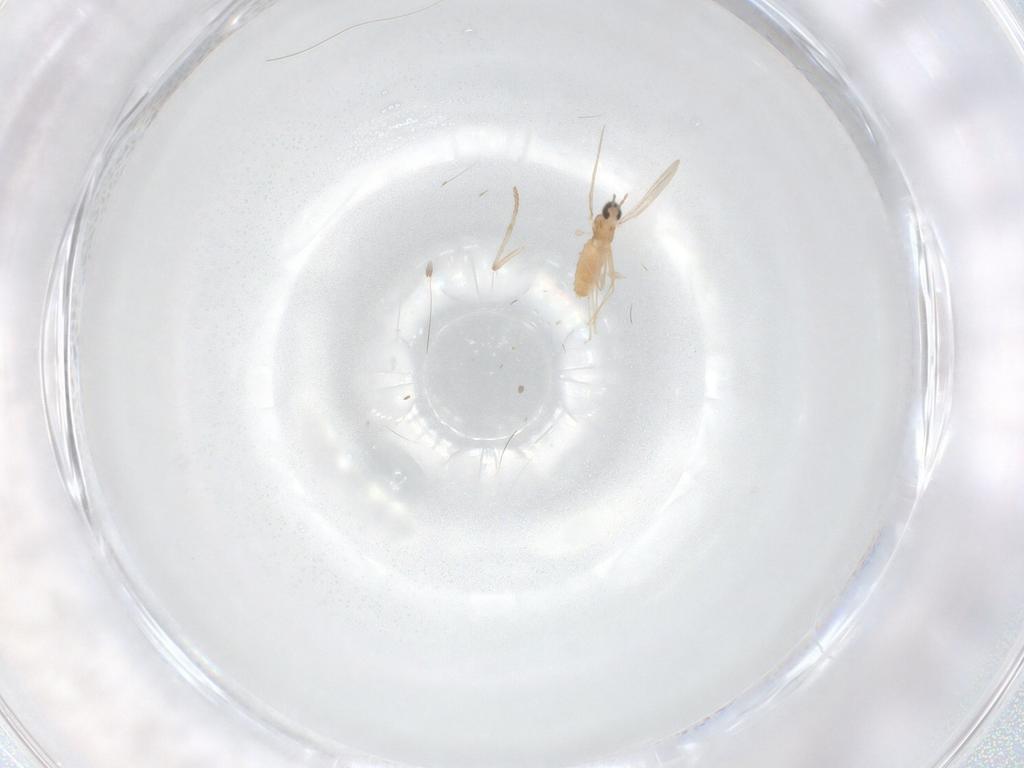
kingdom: Animalia
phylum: Arthropoda
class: Insecta
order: Diptera
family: Cecidomyiidae
